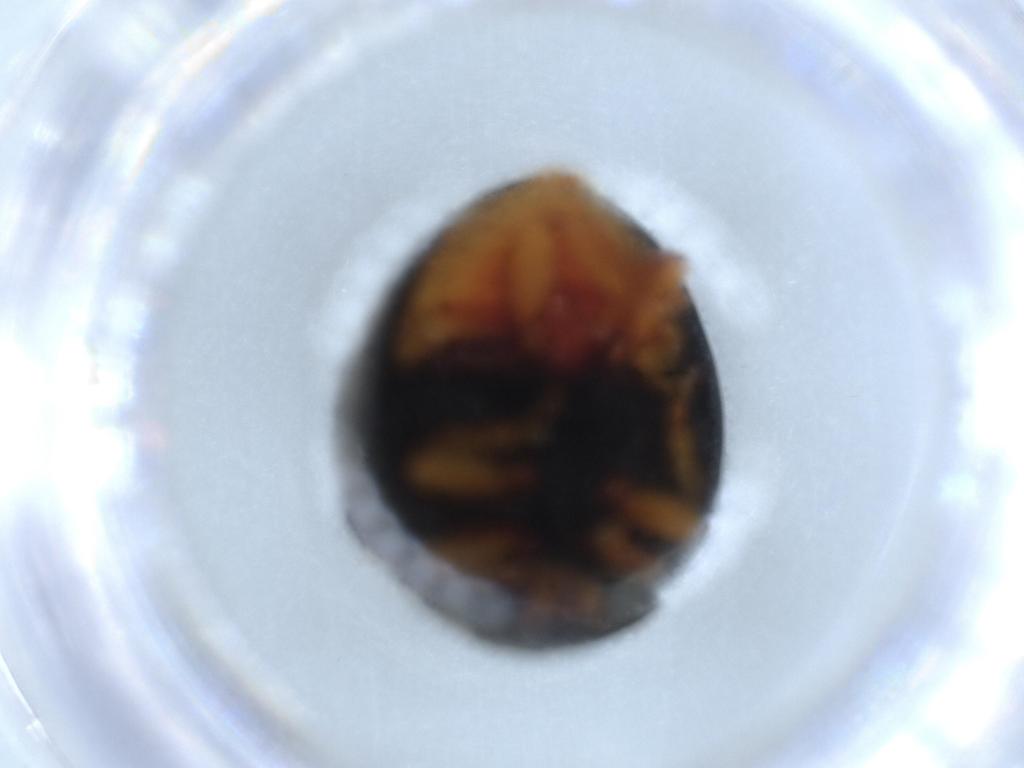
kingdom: Animalia
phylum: Arthropoda
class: Insecta
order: Coleoptera
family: Coccinellidae
